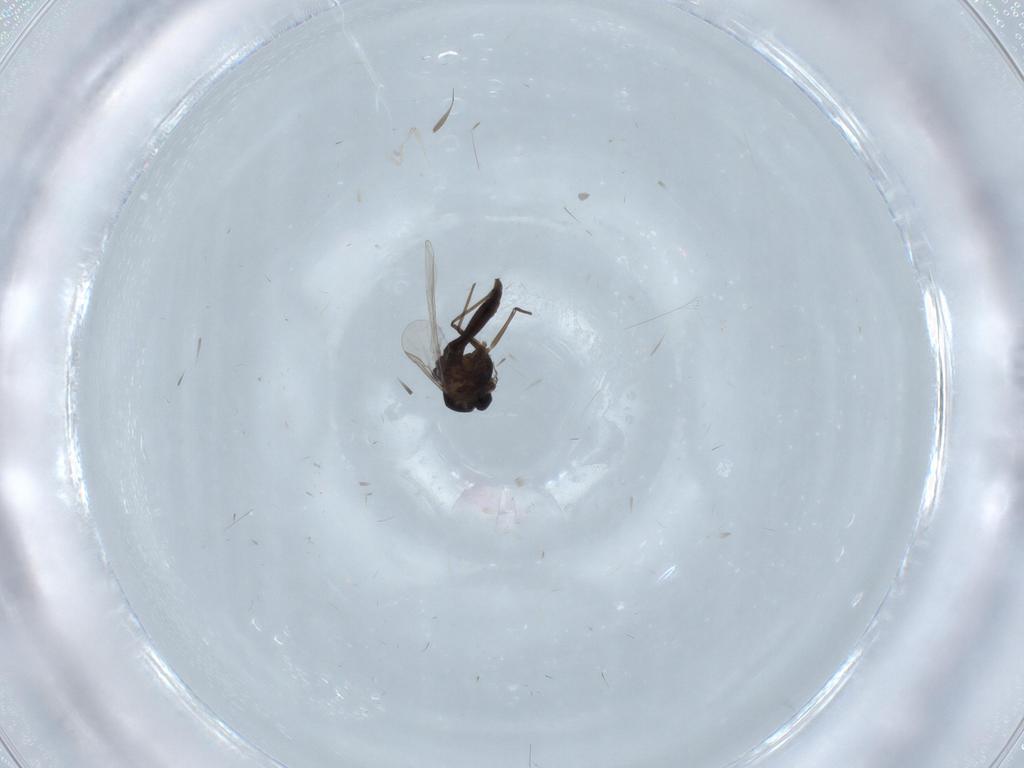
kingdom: Animalia
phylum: Arthropoda
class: Insecta
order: Diptera
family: Chironomidae
